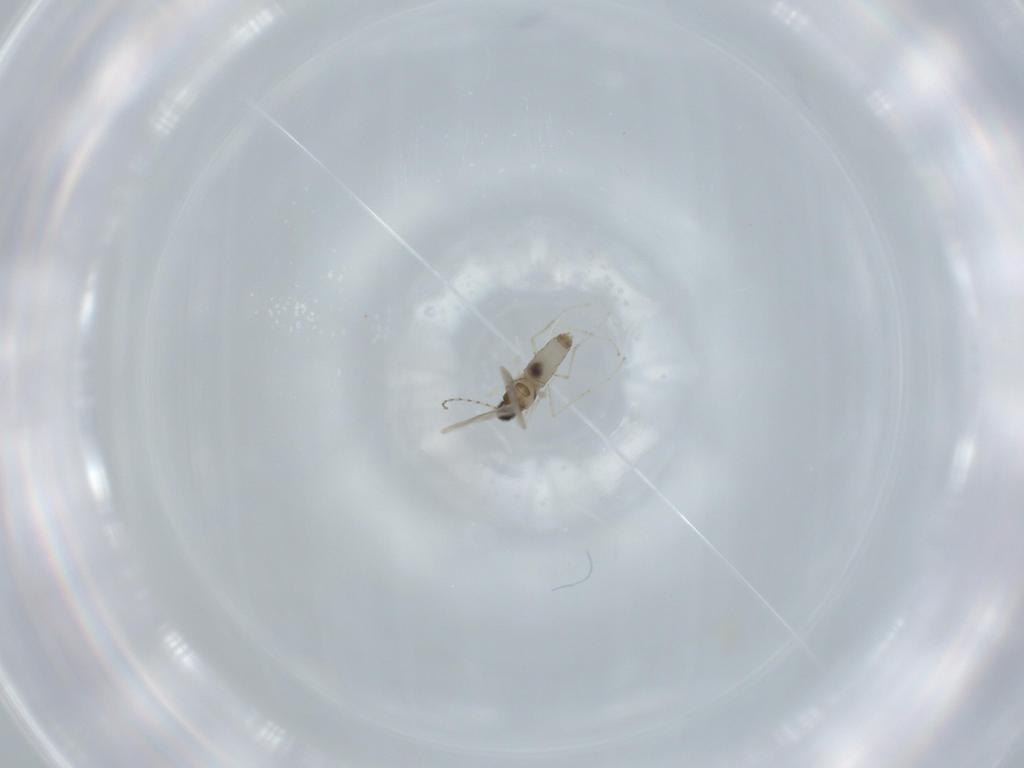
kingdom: Animalia
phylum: Arthropoda
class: Insecta
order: Diptera
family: Cecidomyiidae
